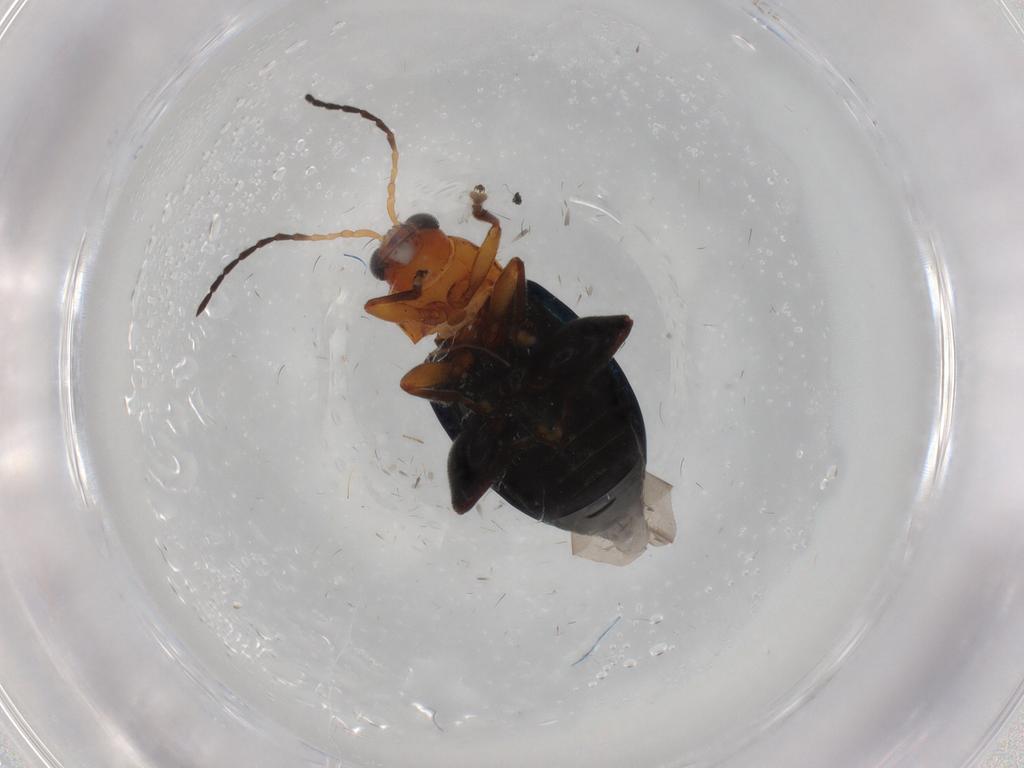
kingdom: Animalia
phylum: Arthropoda
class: Insecta
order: Coleoptera
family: Chrysomelidae
